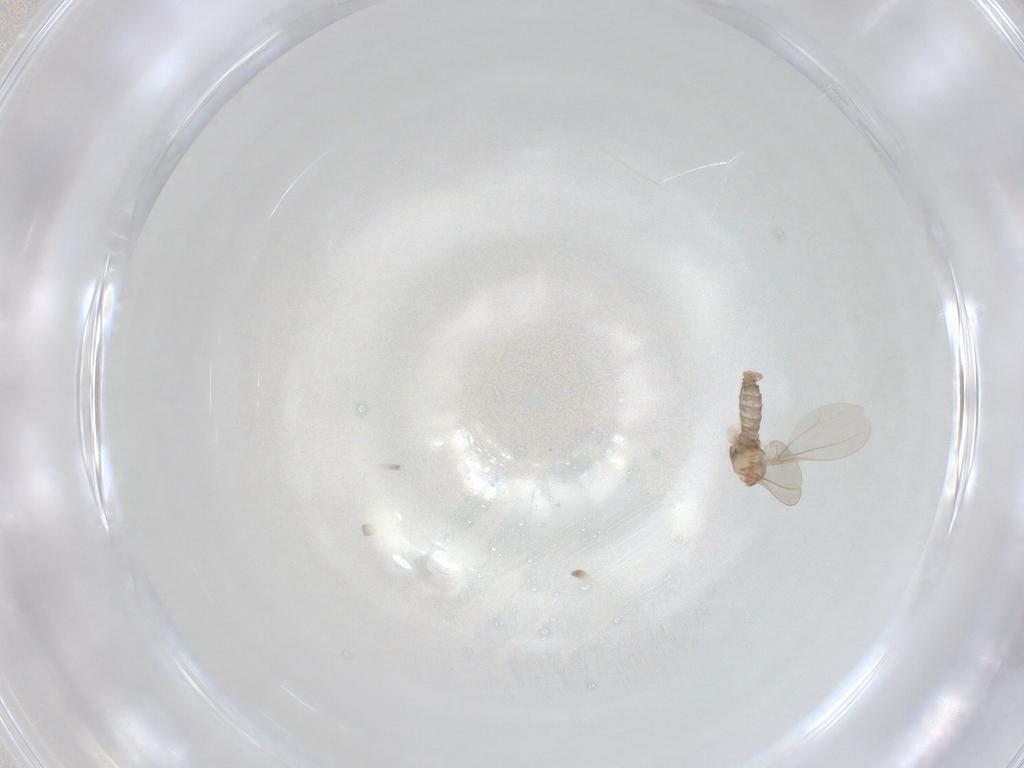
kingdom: Animalia
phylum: Arthropoda
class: Insecta
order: Diptera
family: Cecidomyiidae
